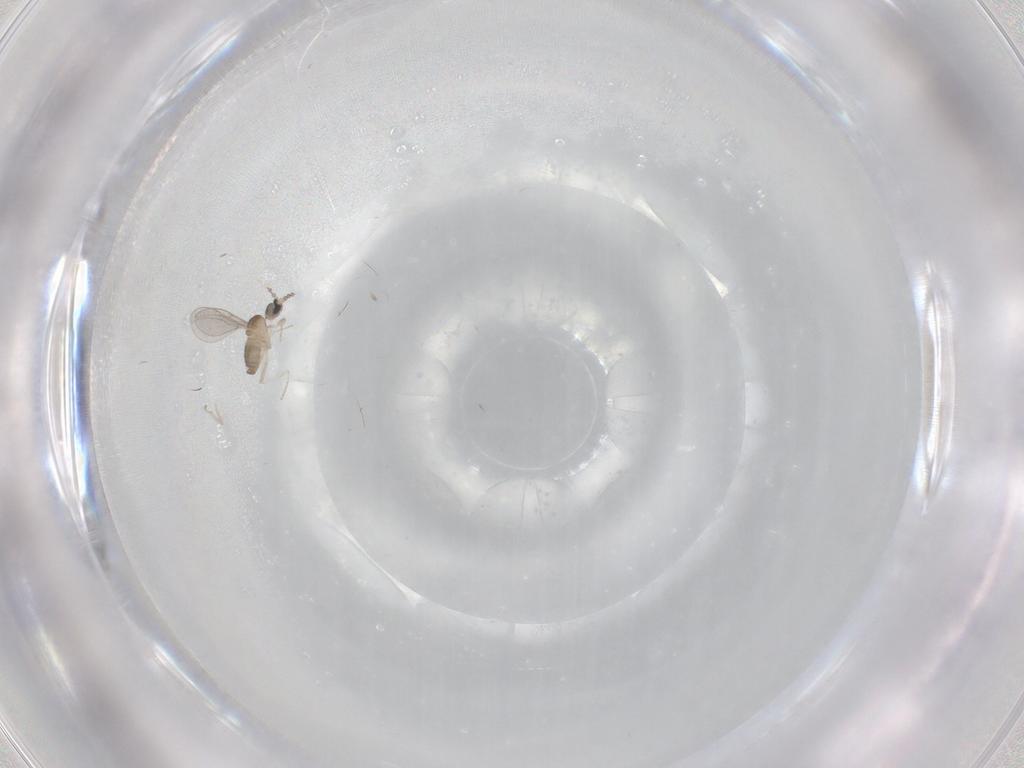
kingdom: Animalia
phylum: Arthropoda
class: Insecta
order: Diptera
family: Cecidomyiidae
